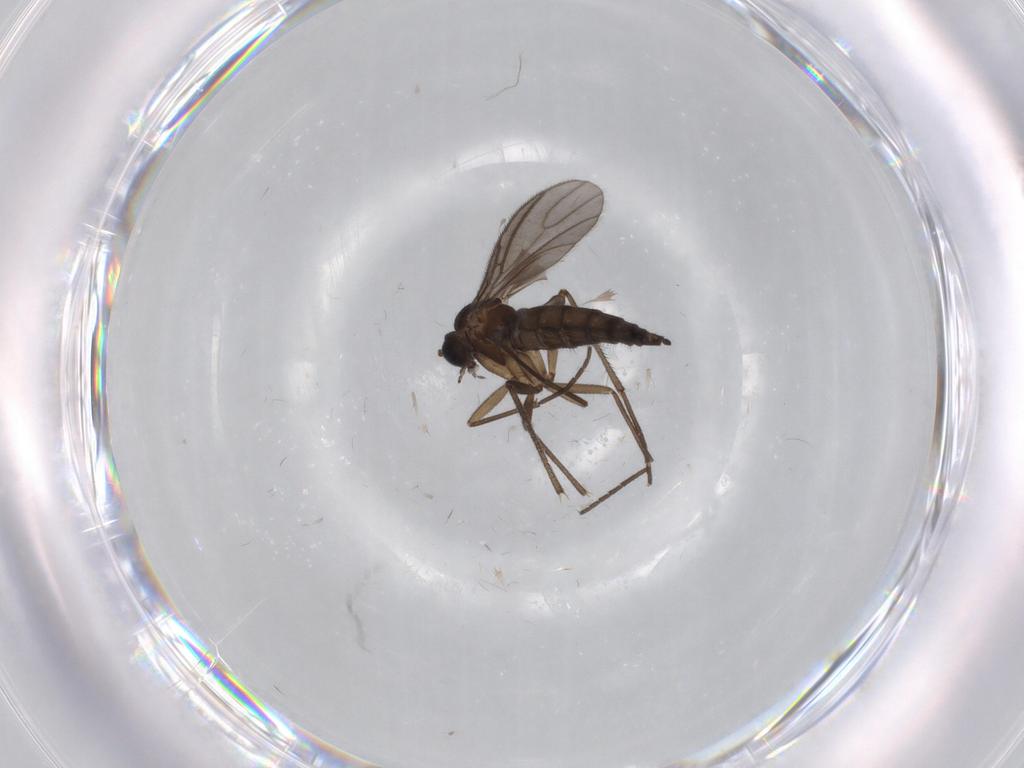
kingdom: Animalia
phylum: Arthropoda
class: Insecta
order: Diptera
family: Sciaridae
